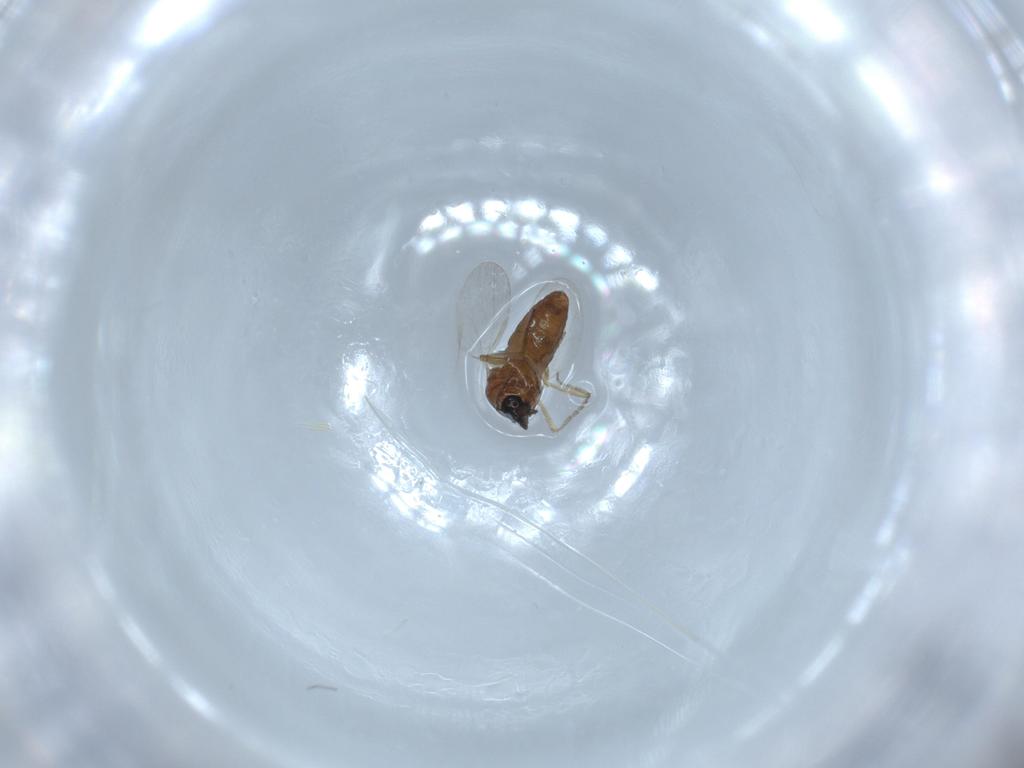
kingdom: Animalia
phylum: Arthropoda
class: Insecta
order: Diptera
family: Ceratopogonidae
